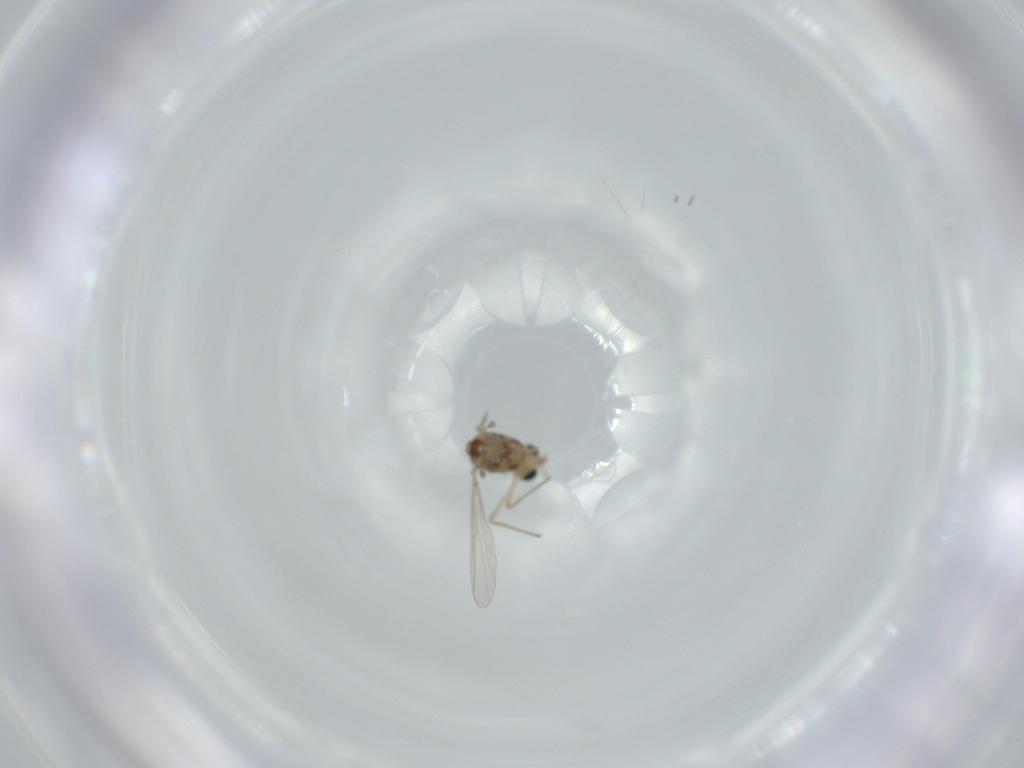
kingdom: Animalia
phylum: Arthropoda
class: Insecta
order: Diptera
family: Chironomidae
